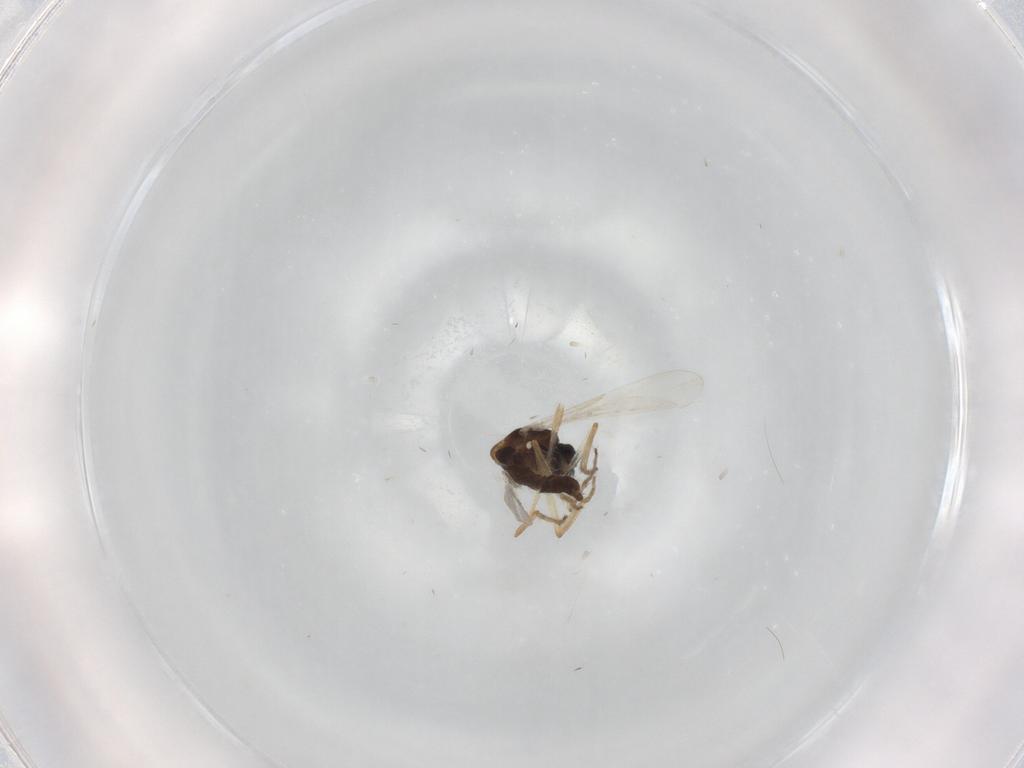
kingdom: Animalia
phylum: Arthropoda
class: Insecta
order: Diptera
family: Ceratopogonidae
